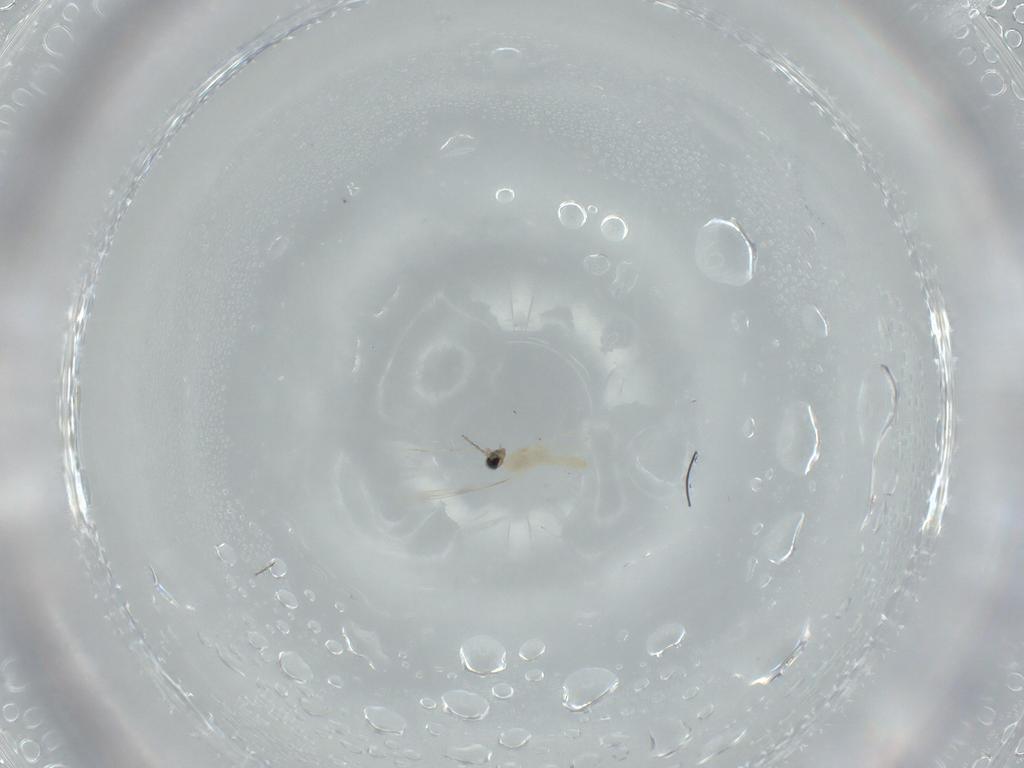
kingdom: Animalia
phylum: Arthropoda
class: Insecta
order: Diptera
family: Cecidomyiidae
